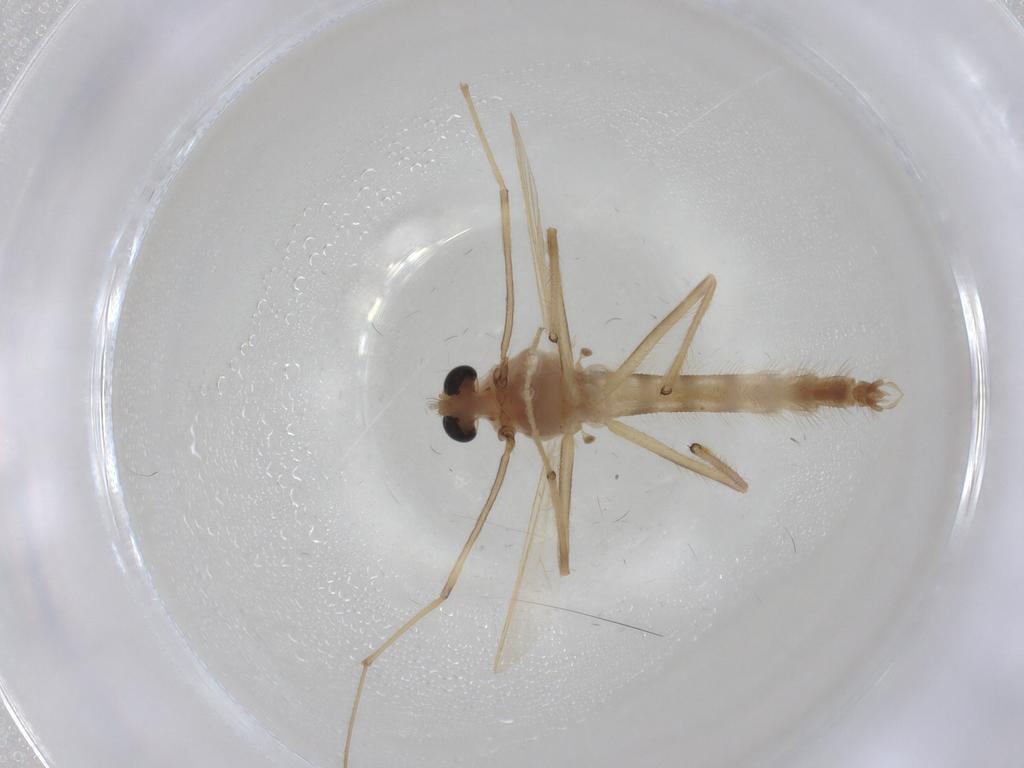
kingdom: Animalia
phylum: Arthropoda
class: Insecta
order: Diptera
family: Chironomidae
